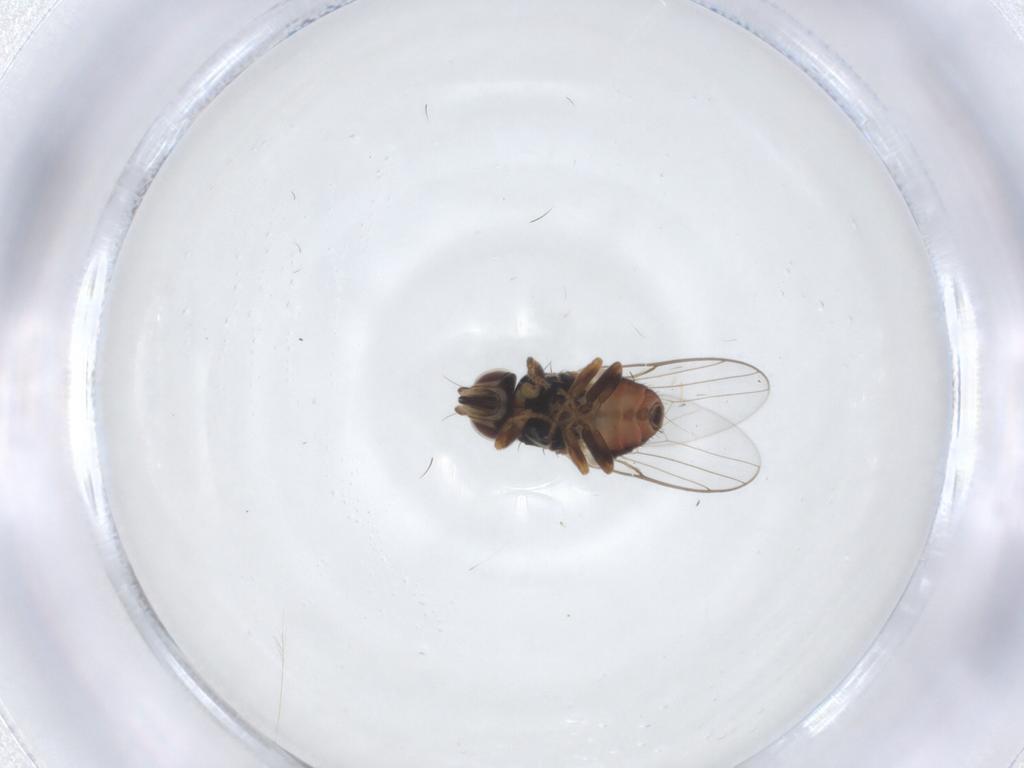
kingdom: Animalia
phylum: Arthropoda
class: Insecta
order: Diptera
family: Chloropidae
